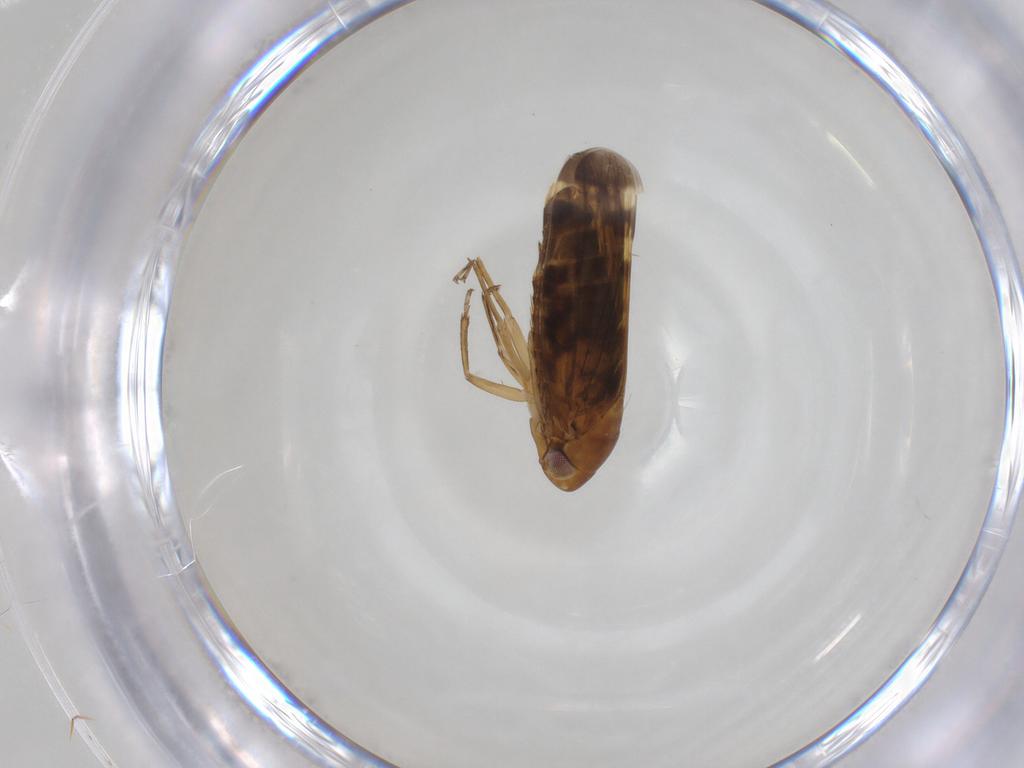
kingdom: Animalia
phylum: Arthropoda
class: Insecta
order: Hemiptera
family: Cicadellidae
